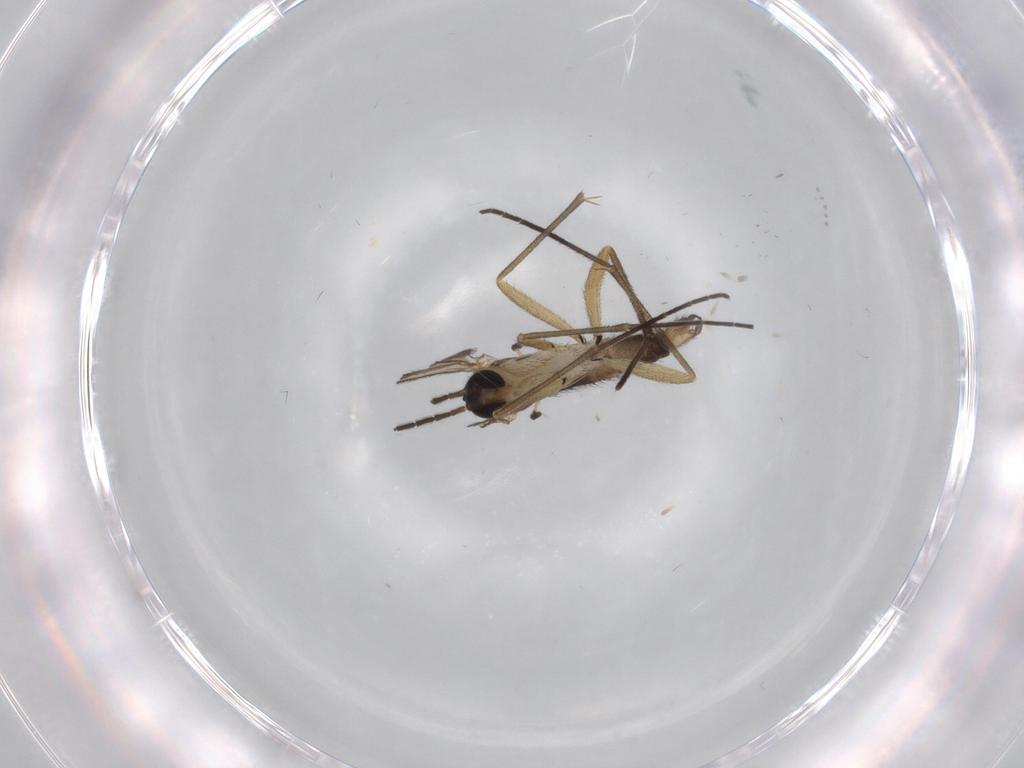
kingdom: Animalia
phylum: Arthropoda
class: Insecta
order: Diptera
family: Sciaridae
